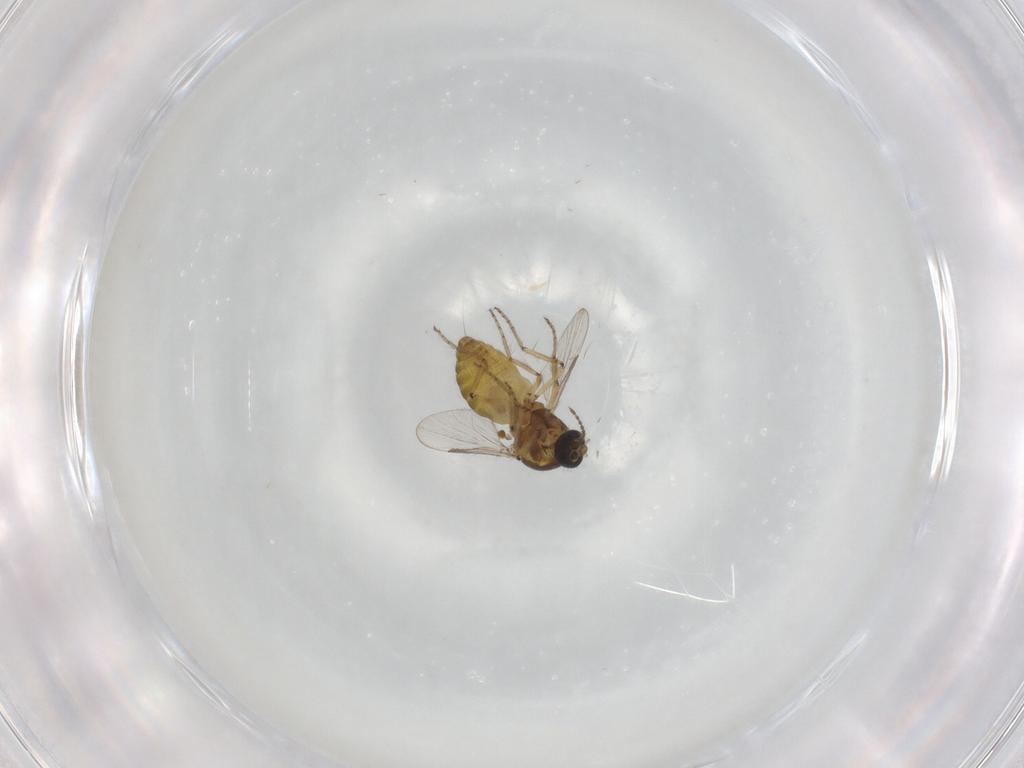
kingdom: Animalia
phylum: Arthropoda
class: Insecta
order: Diptera
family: Ceratopogonidae
